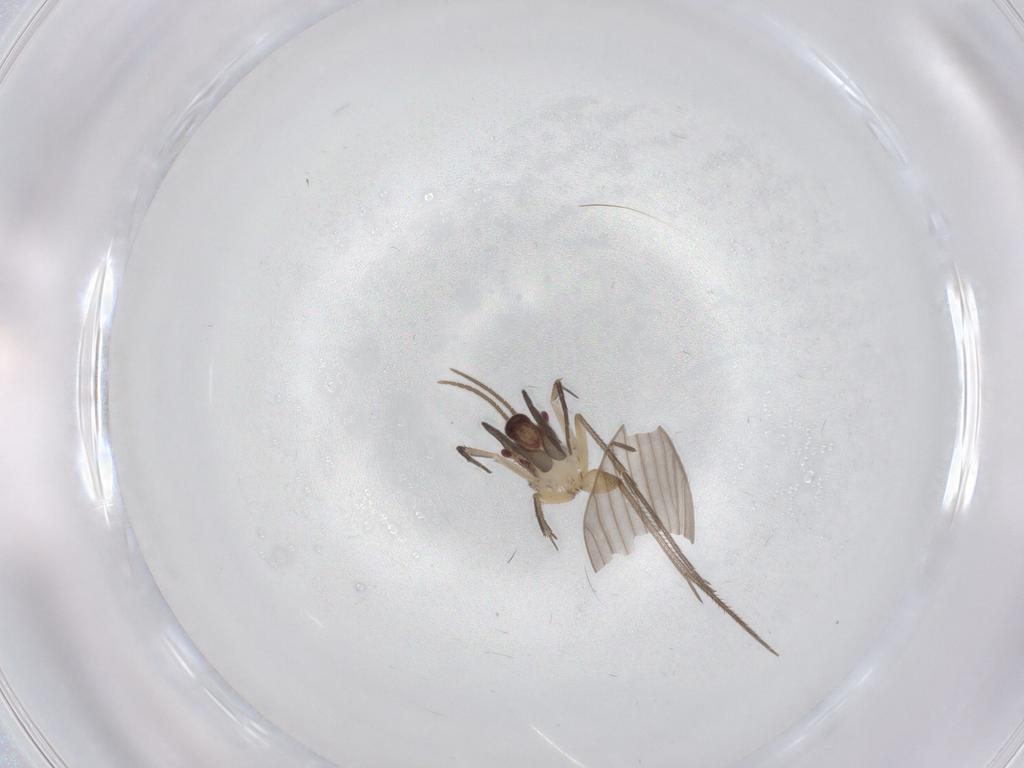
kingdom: Animalia
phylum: Arthropoda
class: Insecta
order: Diptera
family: Mycetophilidae
